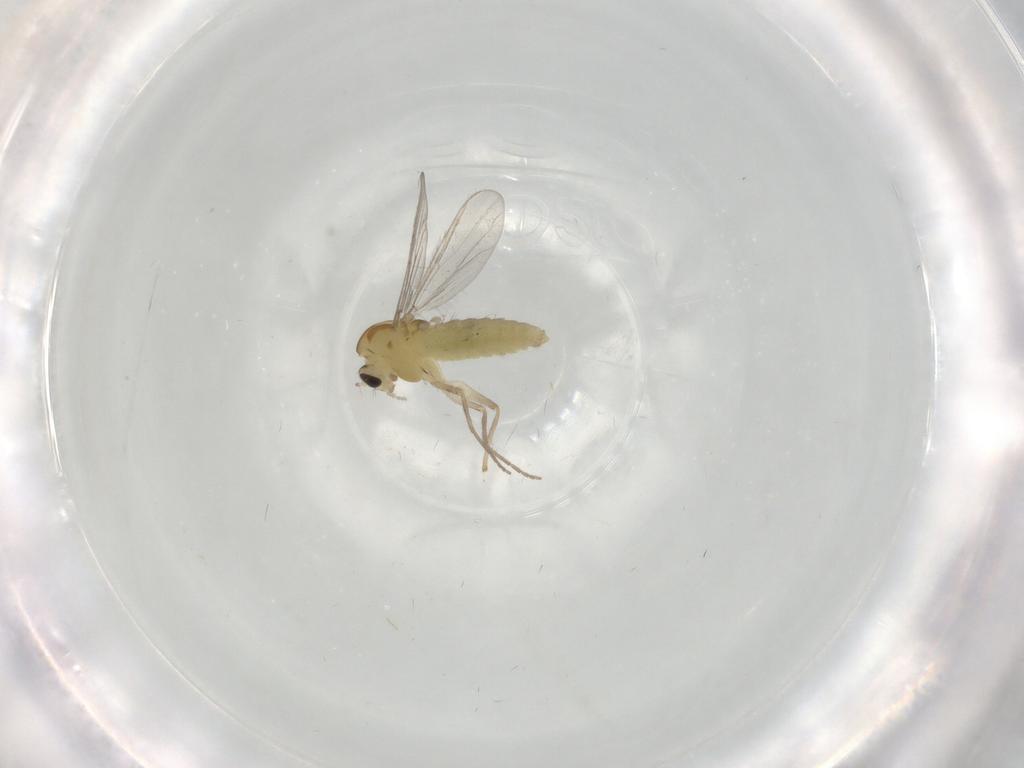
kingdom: Animalia
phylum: Arthropoda
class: Insecta
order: Diptera
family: Chironomidae
